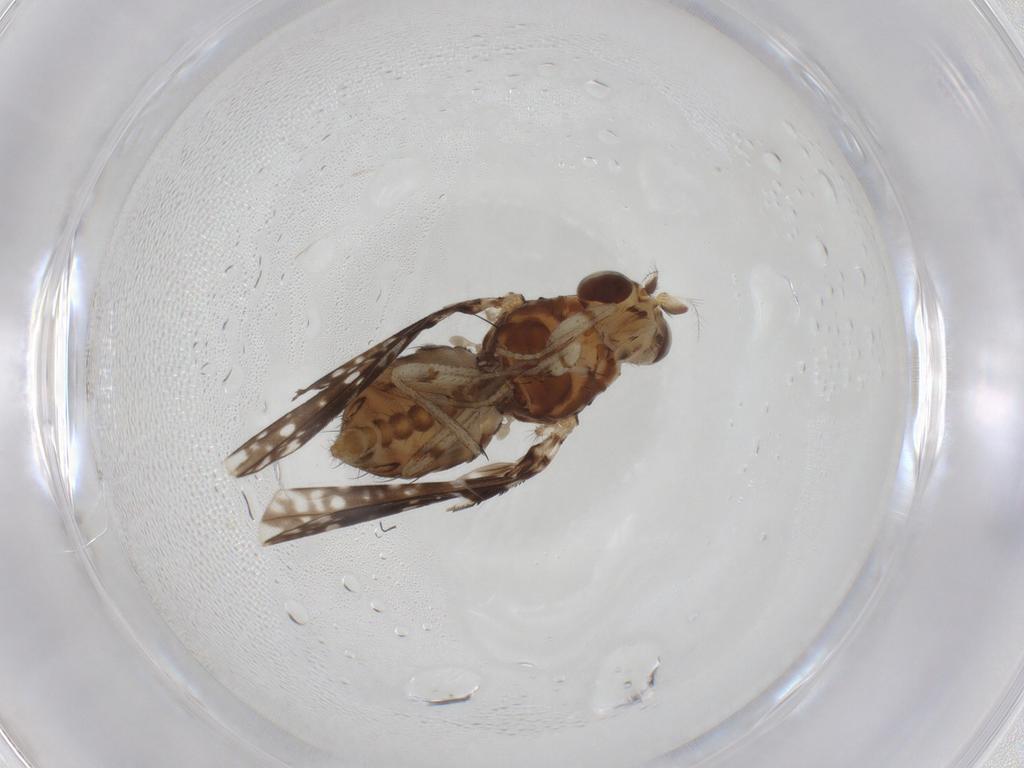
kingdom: Animalia
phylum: Arthropoda
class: Insecta
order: Diptera
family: Lauxaniidae
